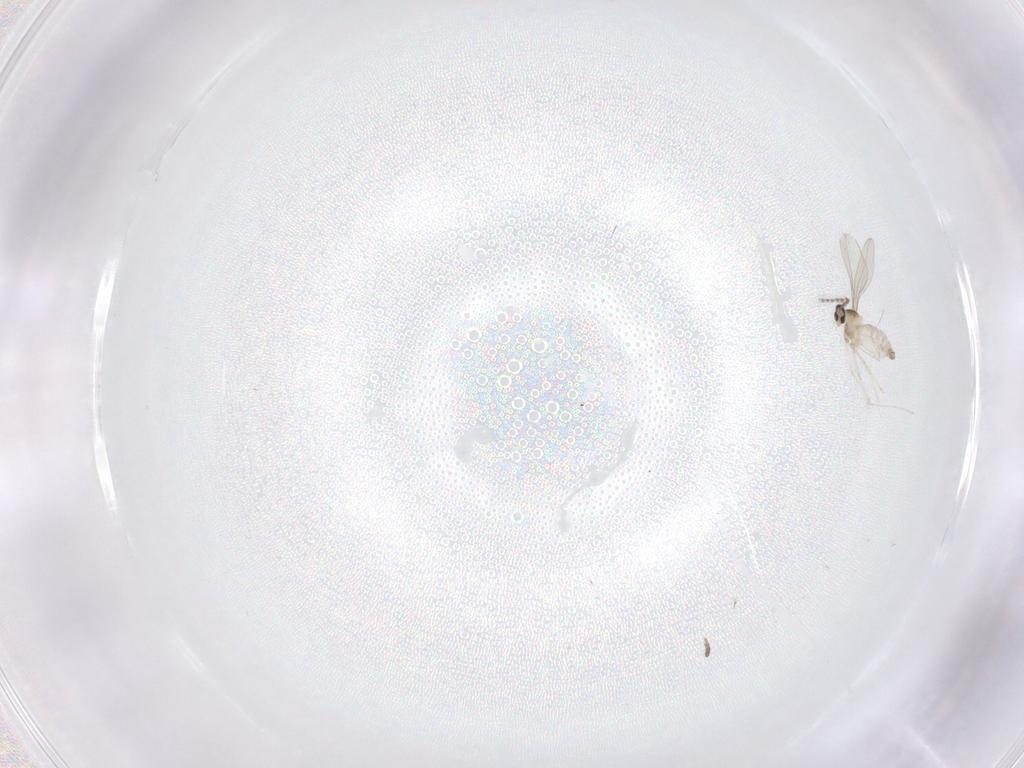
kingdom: Animalia
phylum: Arthropoda
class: Insecta
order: Diptera
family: Cecidomyiidae
